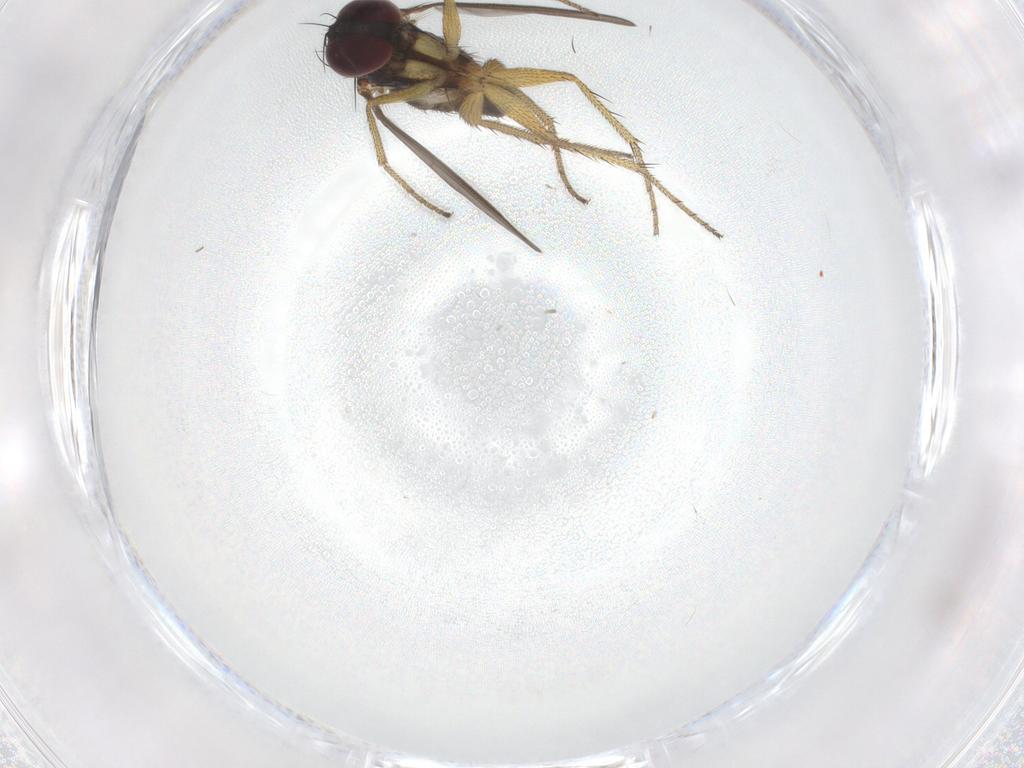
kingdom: Animalia
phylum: Arthropoda
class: Insecta
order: Diptera
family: Dolichopodidae
